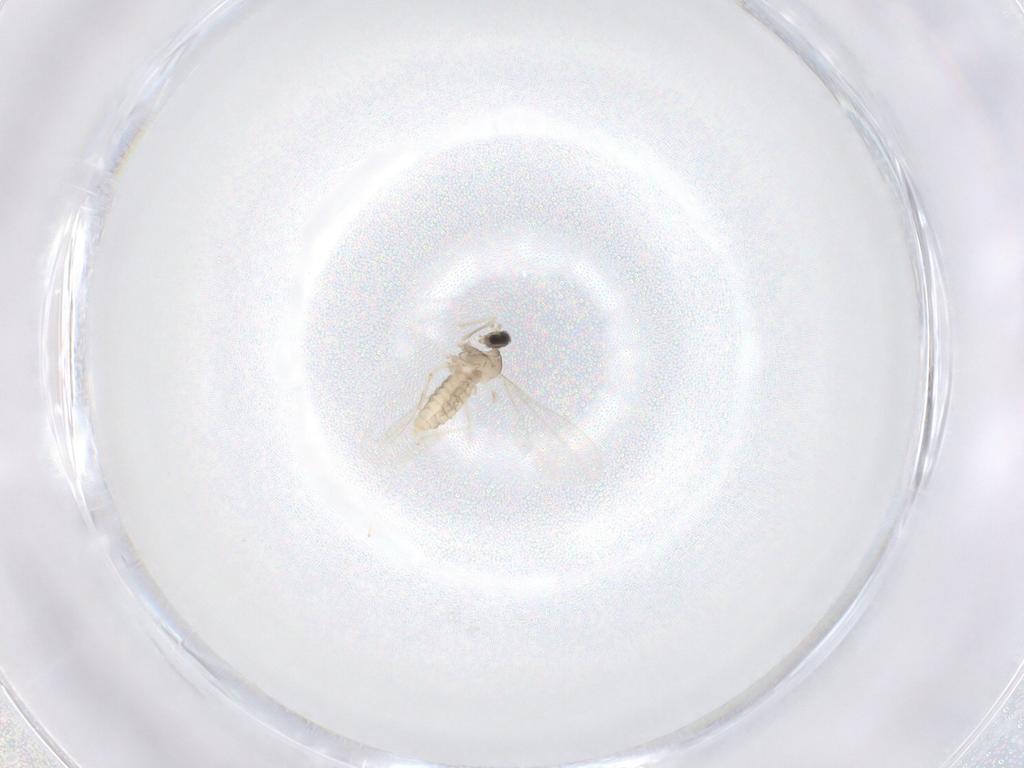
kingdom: Animalia
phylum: Arthropoda
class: Insecta
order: Diptera
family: Cecidomyiidae
